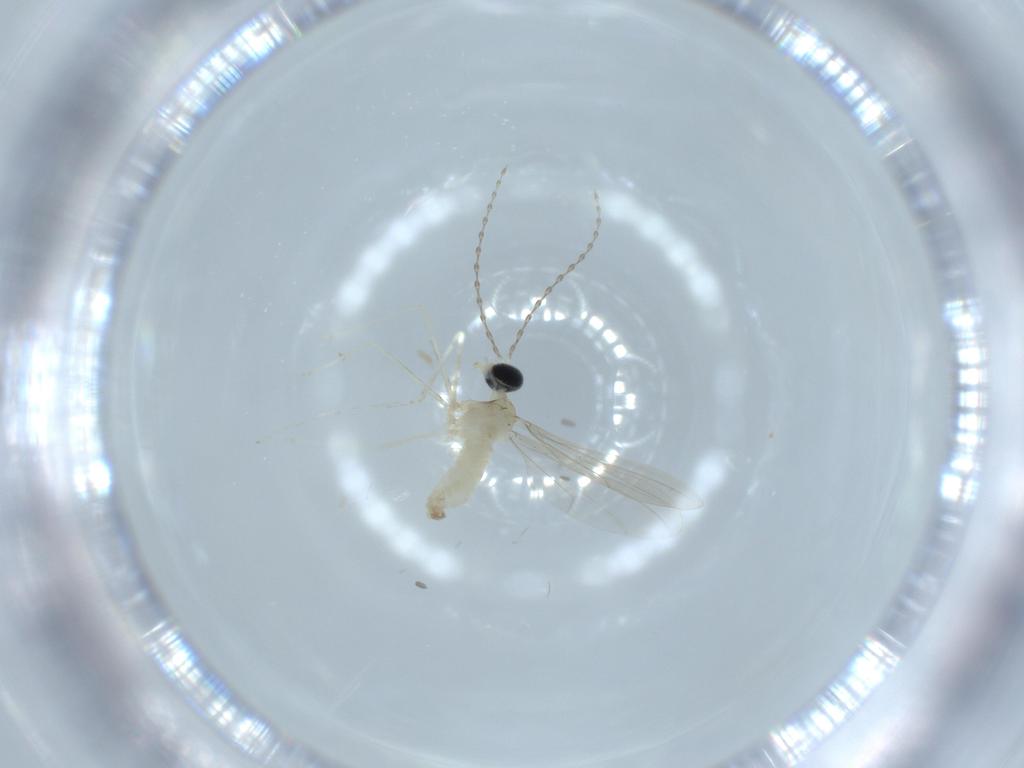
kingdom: Animalia
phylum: Arthropoda
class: Insecta
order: Diptera
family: Cecidomyiidae
